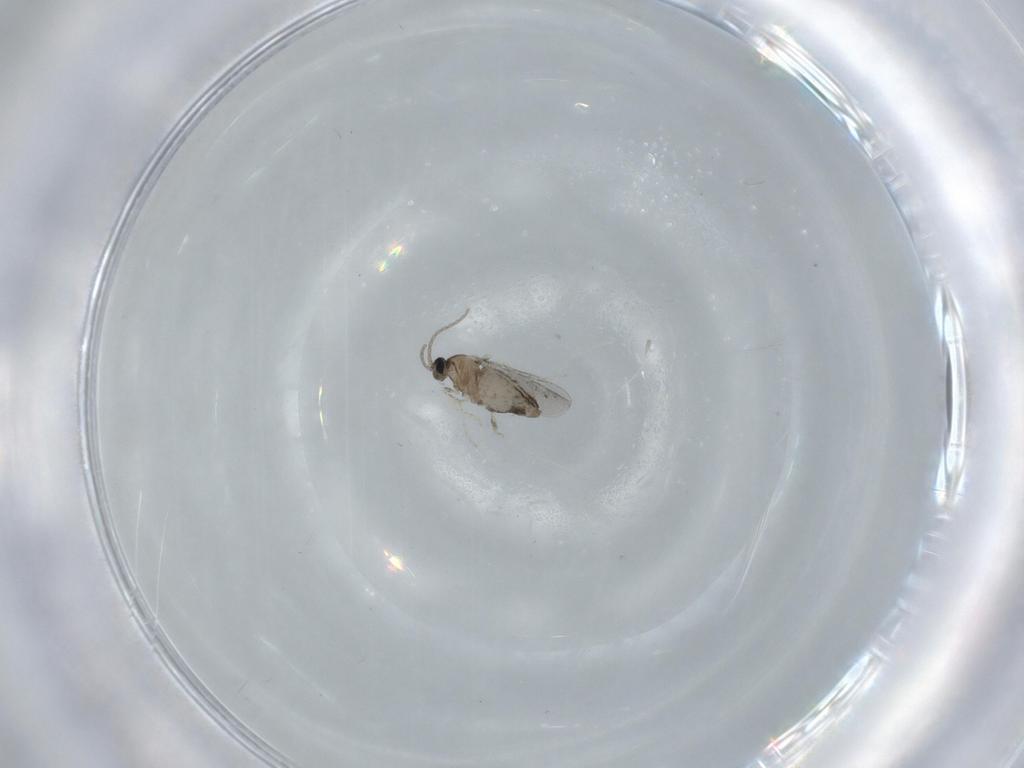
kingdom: Animalia
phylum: Arthropoda
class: Insecta
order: Diptera
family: Cecidomyiidae
